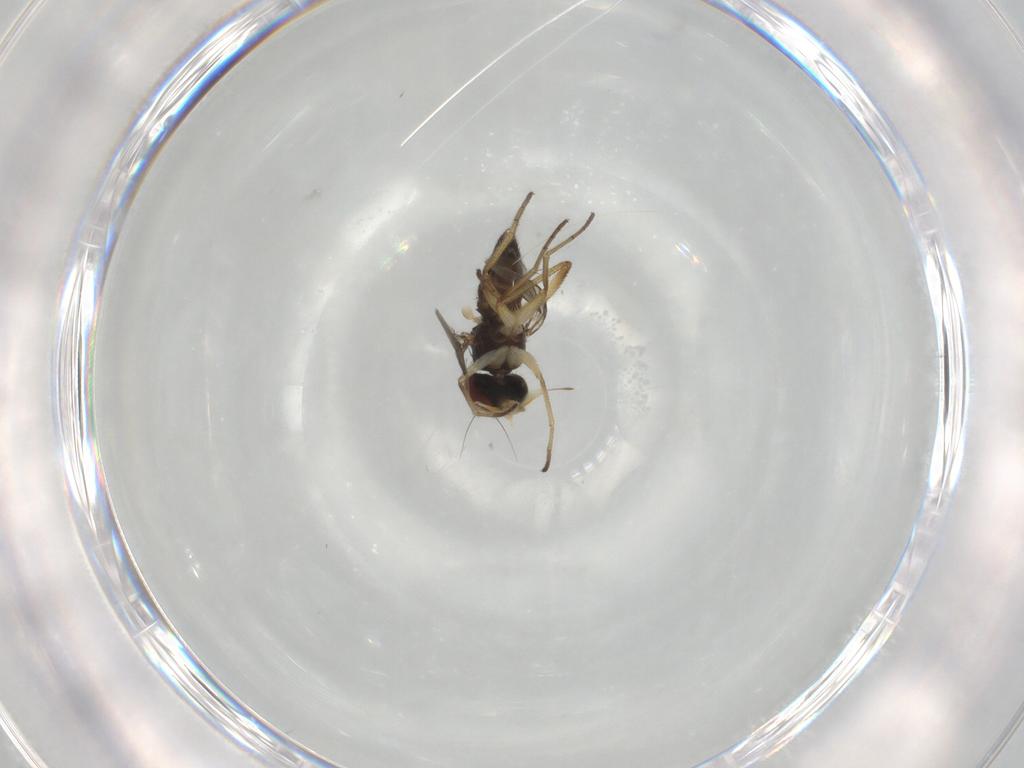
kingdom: Animalia
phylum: Arthropoda
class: Insecta
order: Diptera
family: Dolichopodidae
